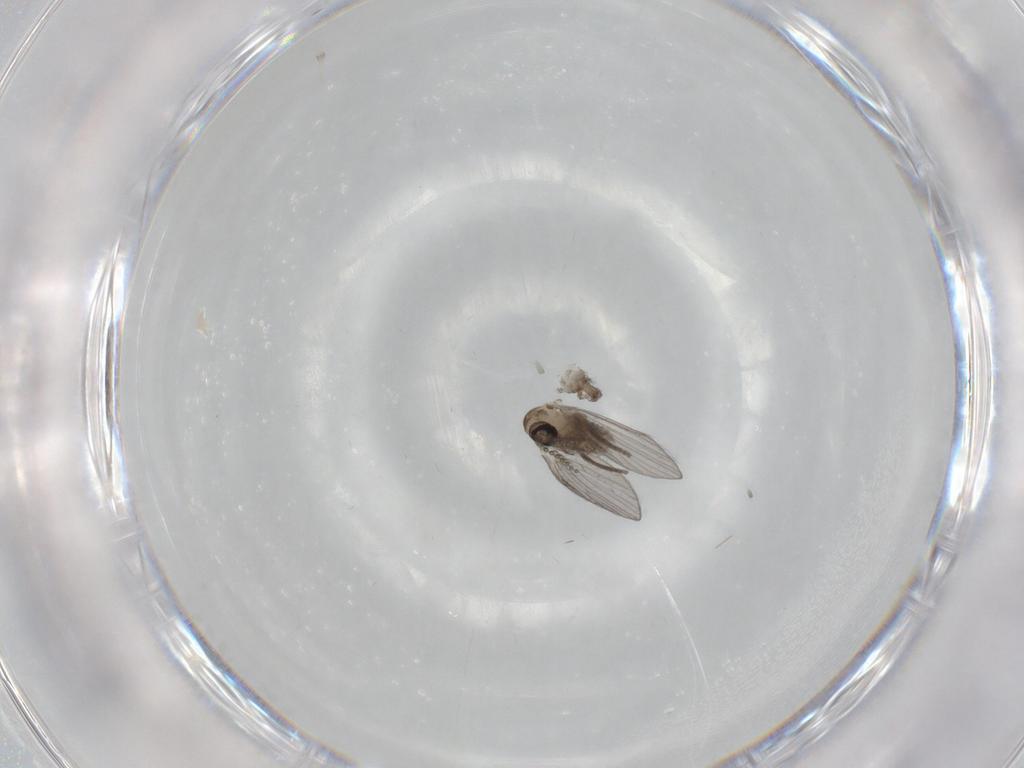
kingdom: Animalia
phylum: Arthropoda
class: Insecta
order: Diptera
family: Psychodidae
